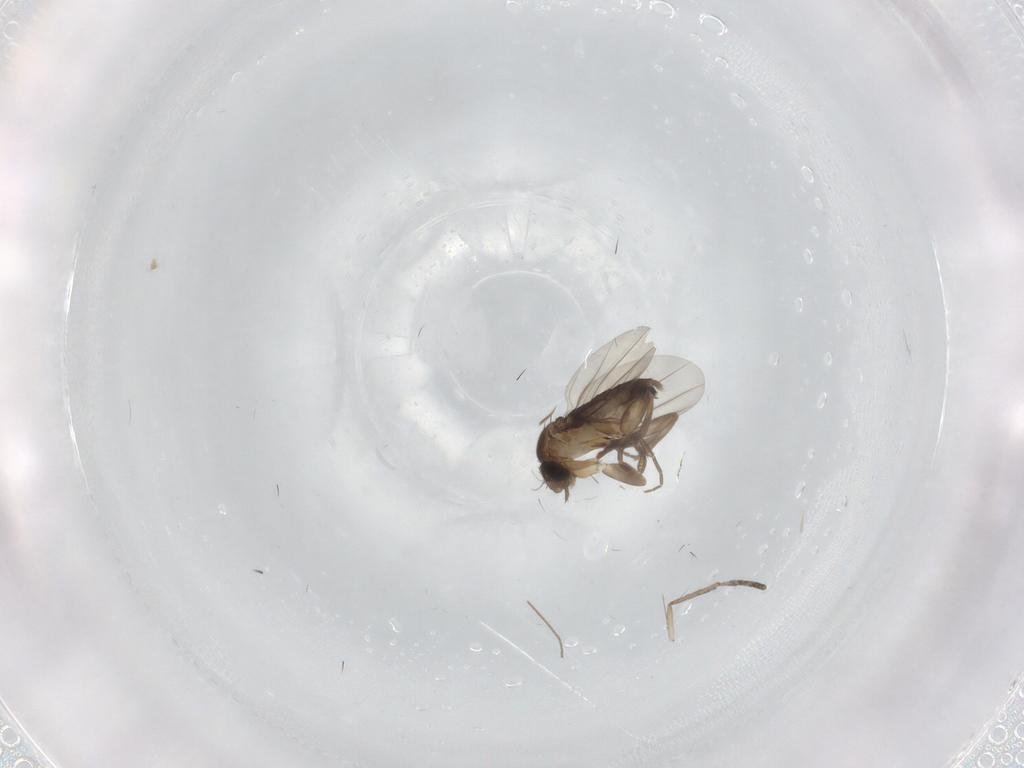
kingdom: Animalia
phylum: Arthropoda
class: Insecta
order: Diptera
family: Phoridae
